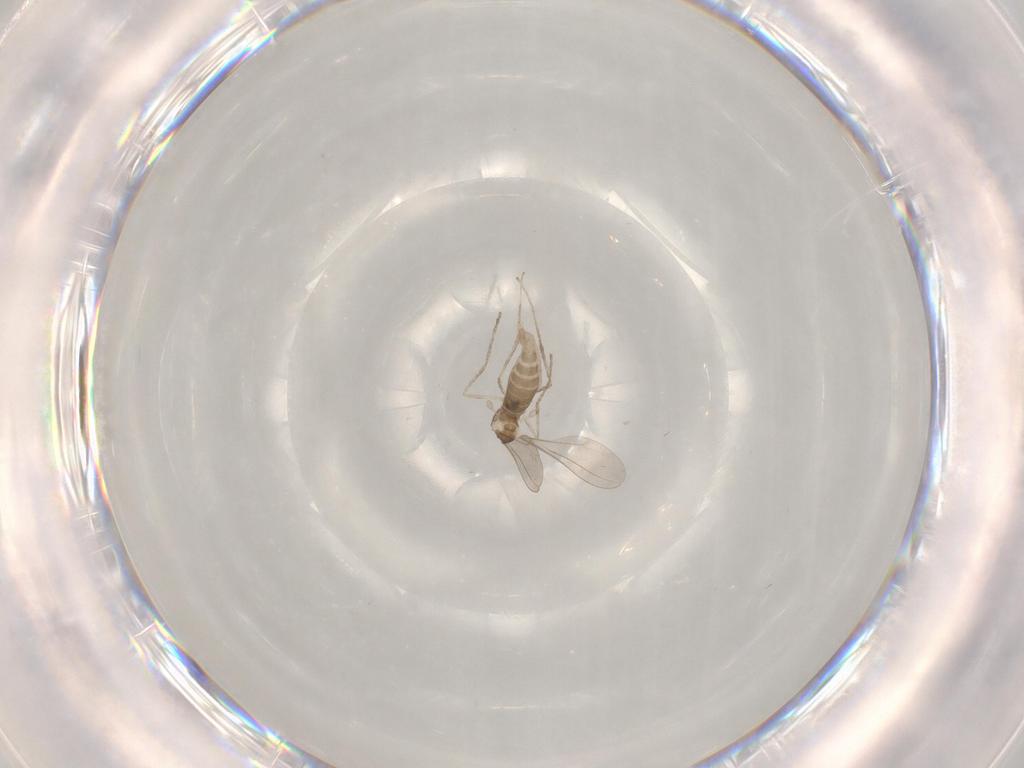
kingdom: Animalia
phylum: Arthropoda
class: Insecta
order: Diptera
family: Chironomidae
